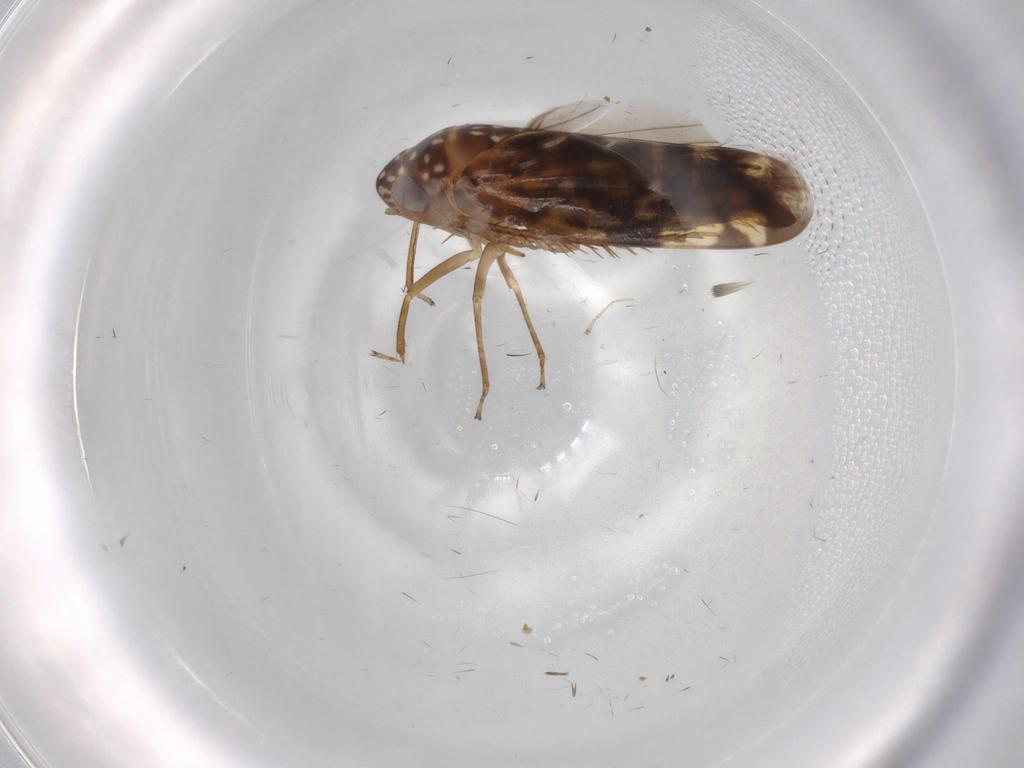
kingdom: Animalia
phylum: Arthropoda
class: Insecta
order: Hemiptera
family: Cicadellidae
